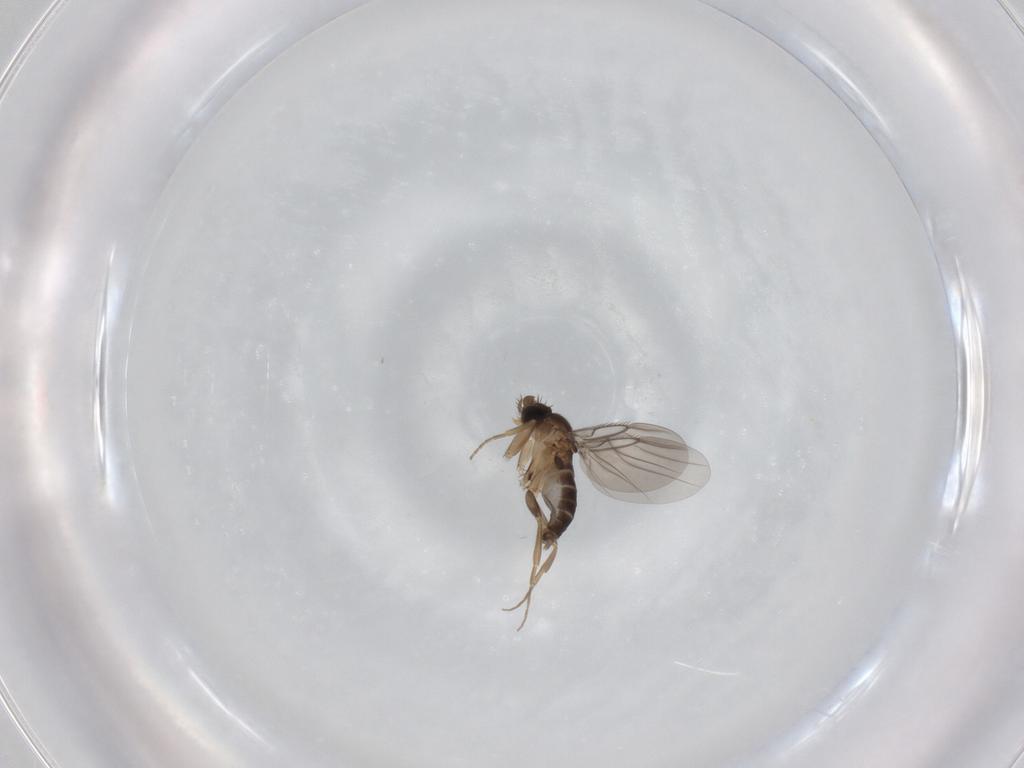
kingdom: Animalia
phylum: Arthropoda
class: Insecta
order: Diptera
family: Phoridae
